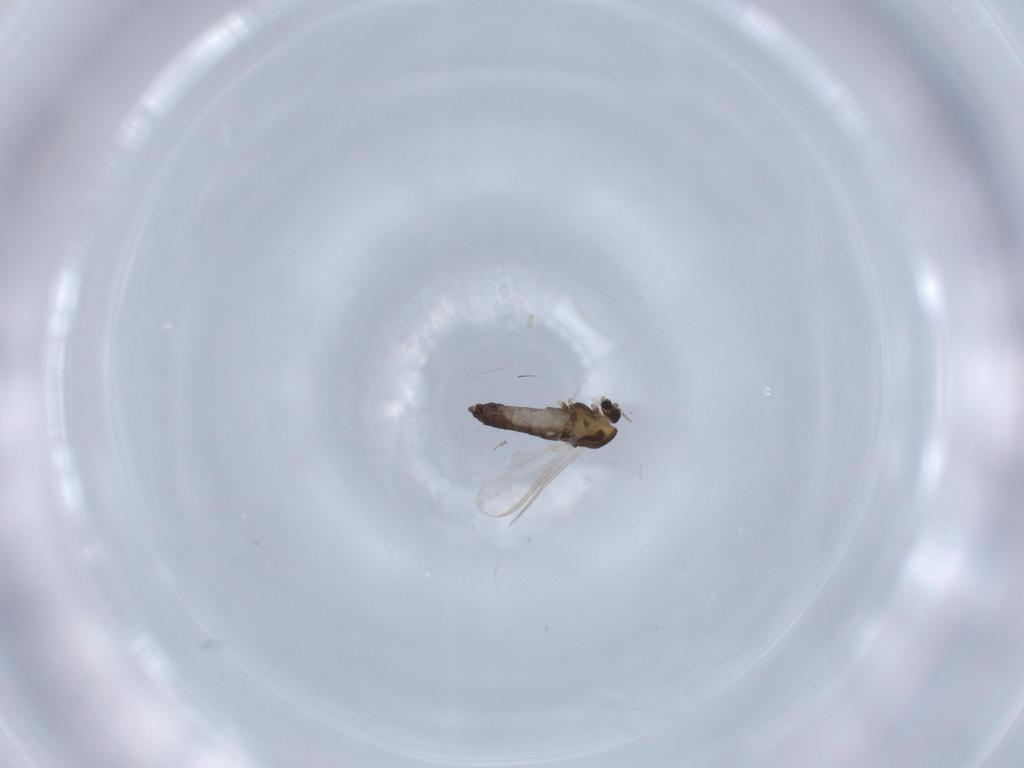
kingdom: Animalia
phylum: Arthropoda
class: Insecta
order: Diptera
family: Chironomidae
